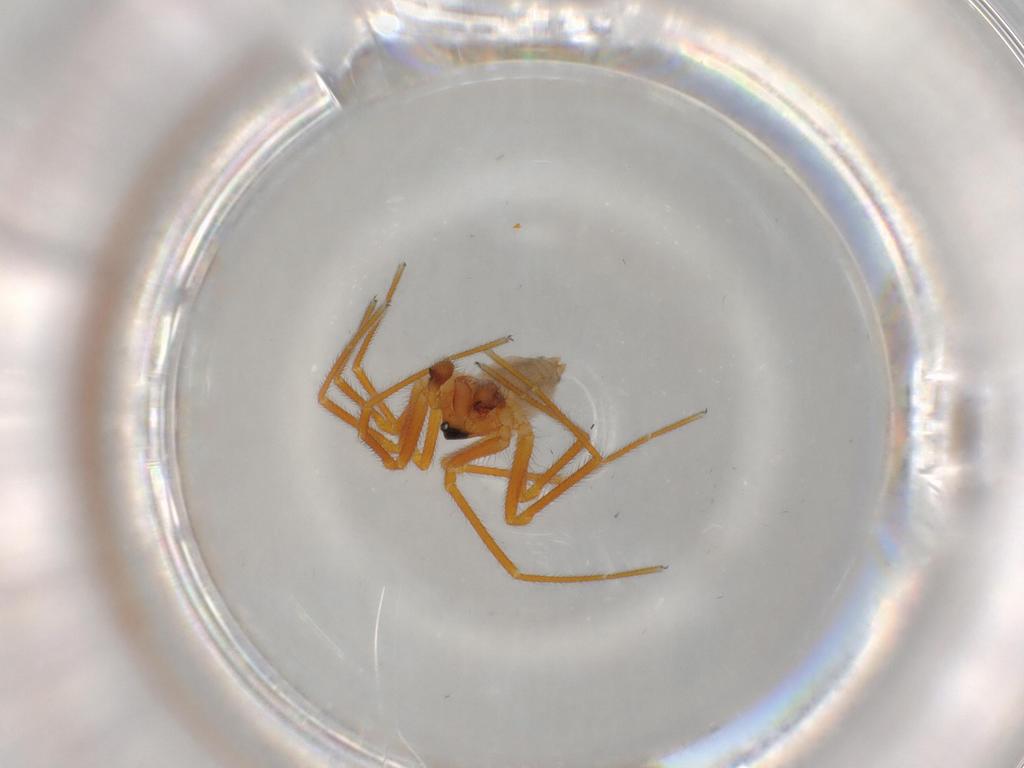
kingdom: Animalia
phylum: Arthropoda
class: Arachnida
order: Araneae
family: Linyphiidae
